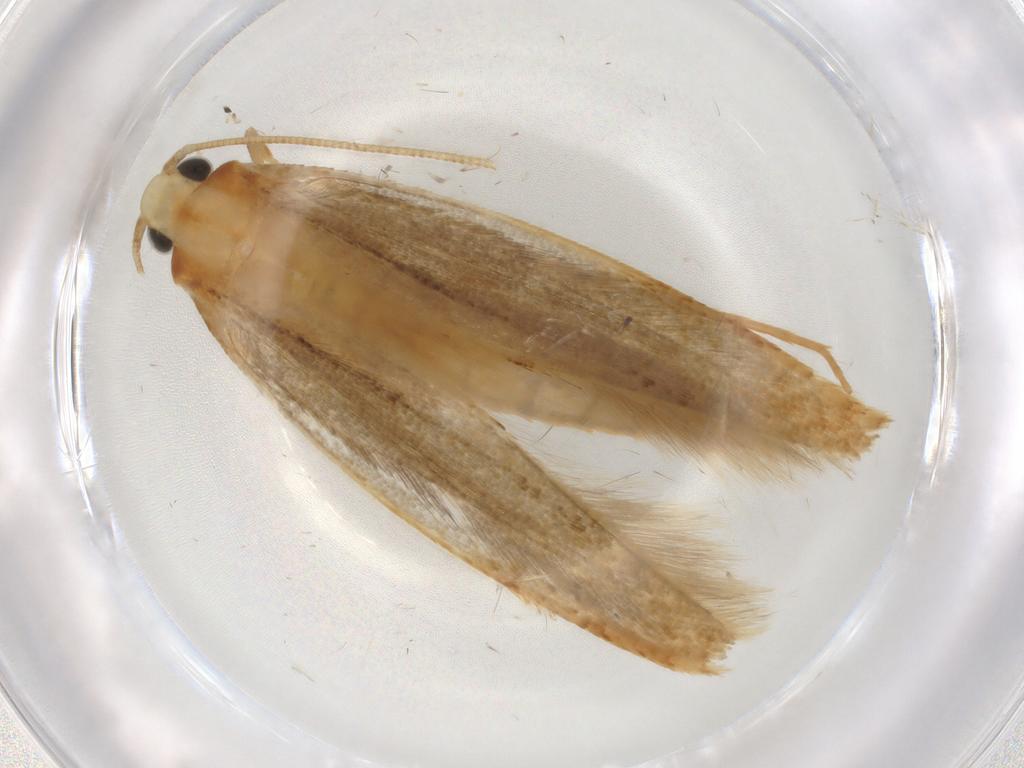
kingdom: Animalia
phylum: Arthropoda
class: Insecta
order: Lepidoptera
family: Tineidae
